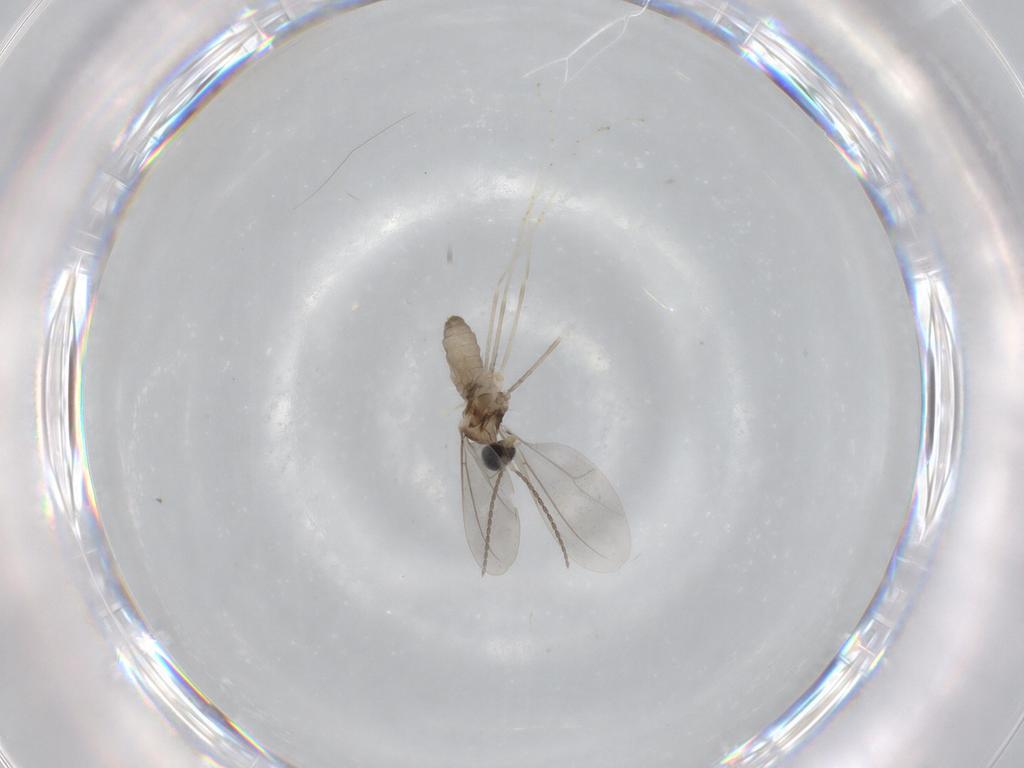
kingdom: Animalia
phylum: Arthropoda
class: Insecta
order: Diptera
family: Cecidomyiidae
